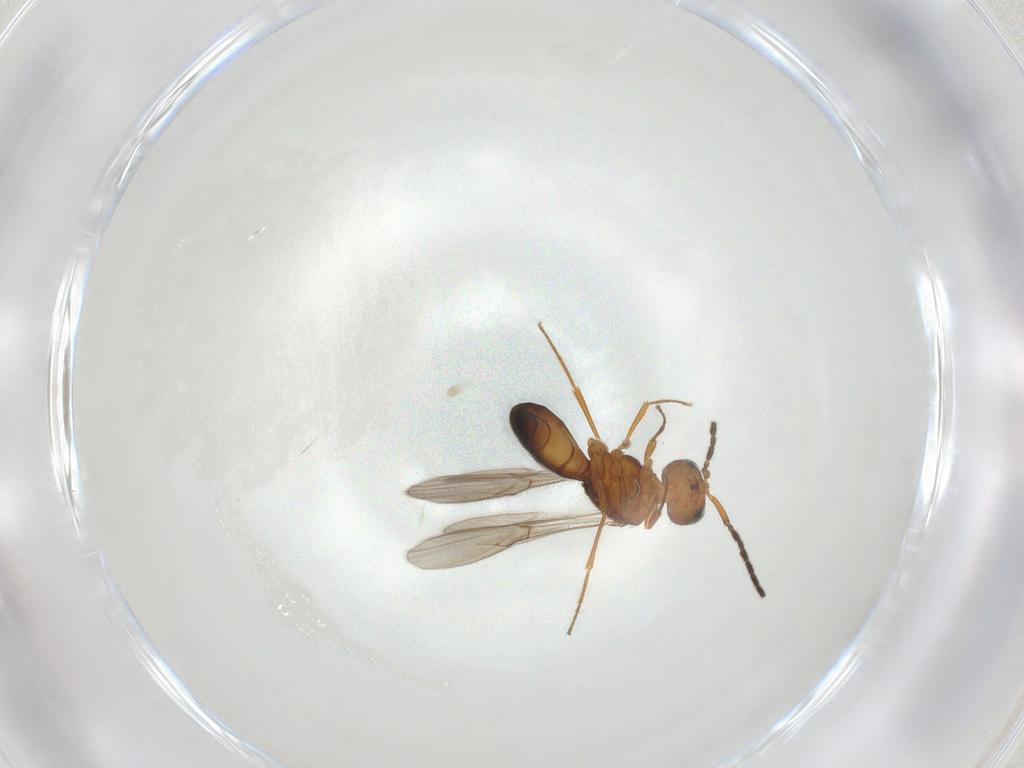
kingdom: Animalia
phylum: Arthropoda
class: Insecta
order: Hymenoptera
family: Scelionidae
